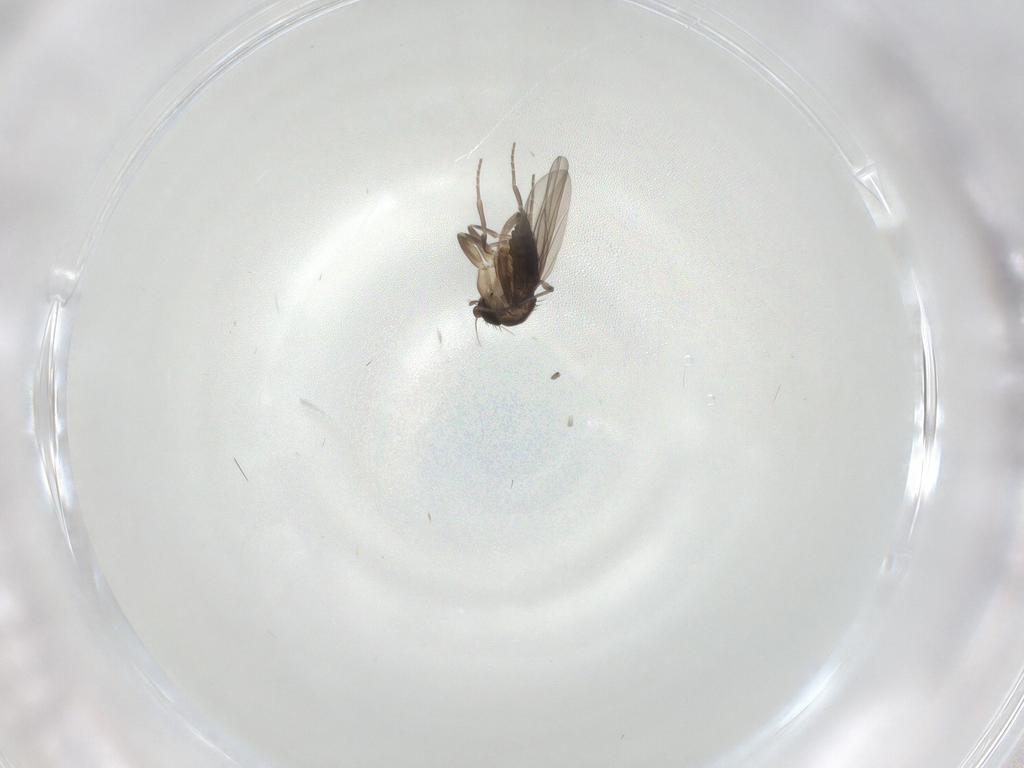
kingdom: Animalia
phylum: Arthropoda
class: Insecta
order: Diptera
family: Phoridae
